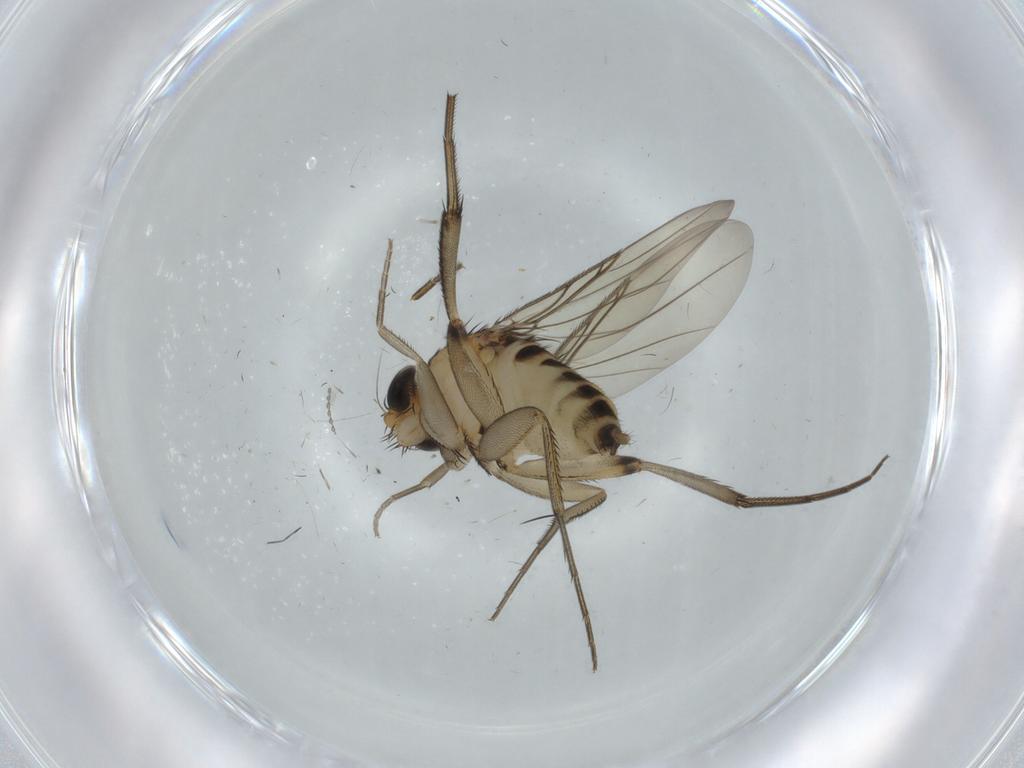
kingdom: Animalia
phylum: Arthropoda
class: Insecta
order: Diptera
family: Phoridae
